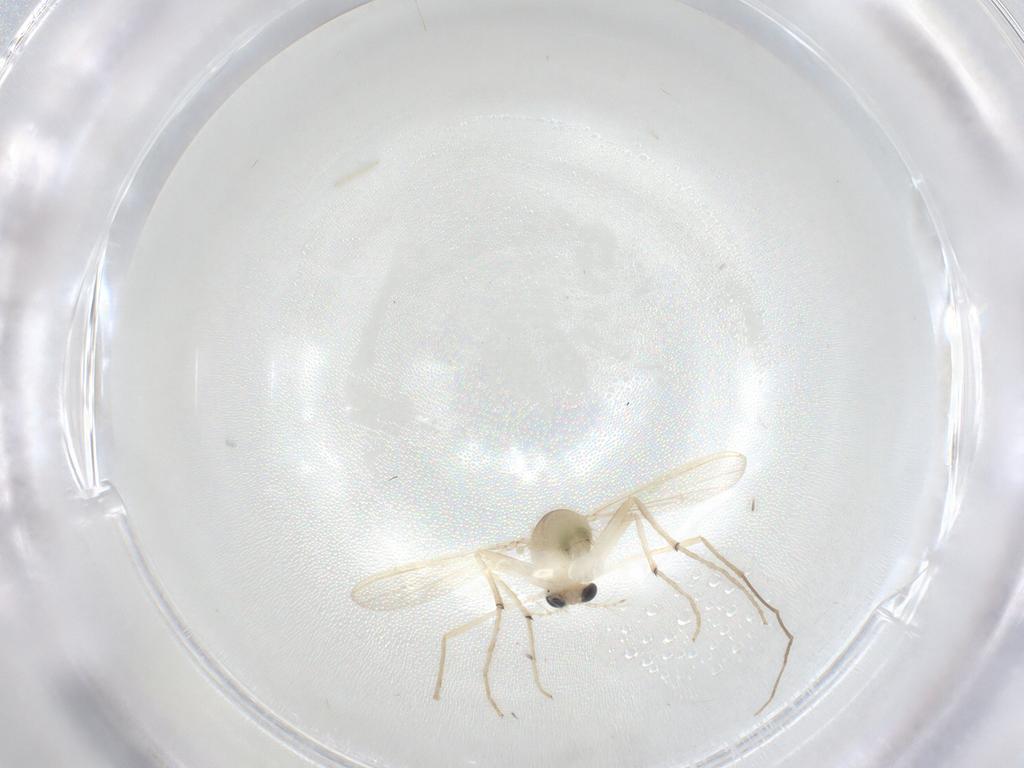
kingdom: Animalia
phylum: Arthropoda
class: Insecta
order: Diptera
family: Chironomidae
